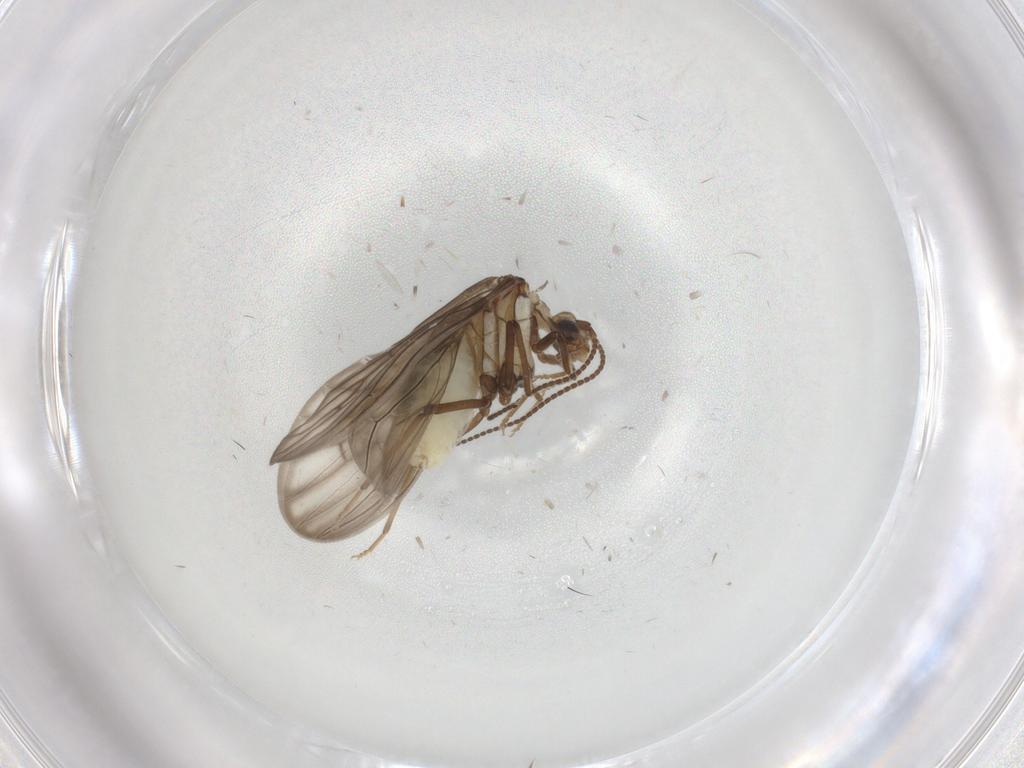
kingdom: Animalia
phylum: Arthropoda
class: Insecta
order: Neuroptera
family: Coniopterygidae
